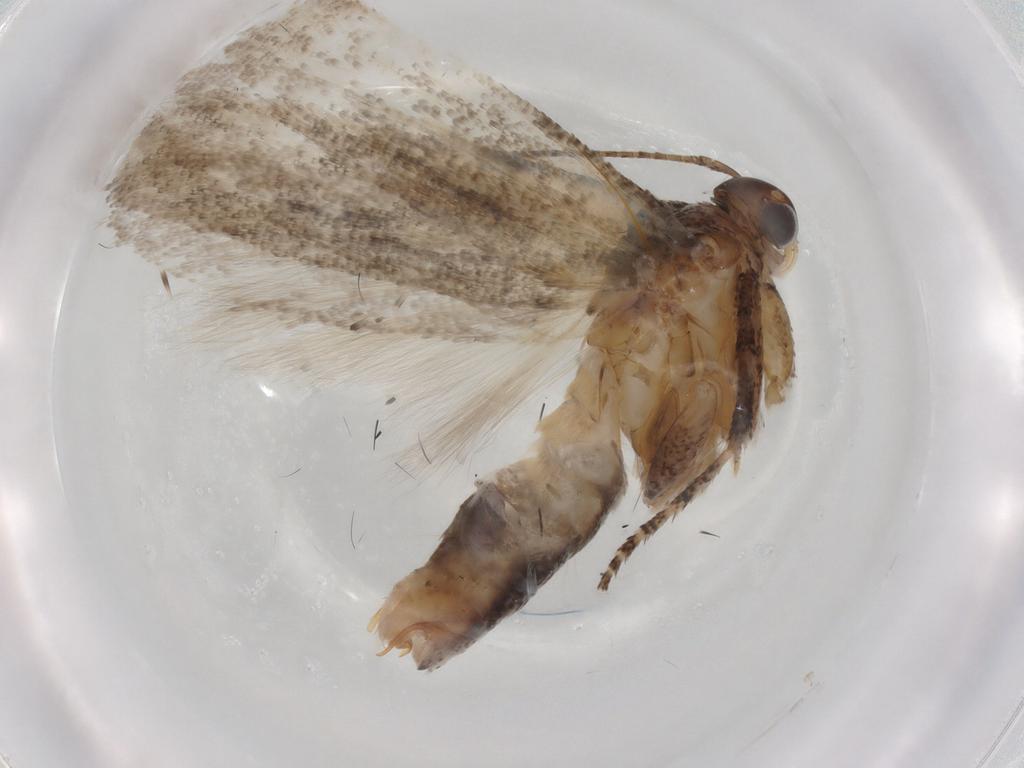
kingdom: Animalia
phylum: Arthropoda
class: Insecta
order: Lepidoptera
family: Gelechiidae
